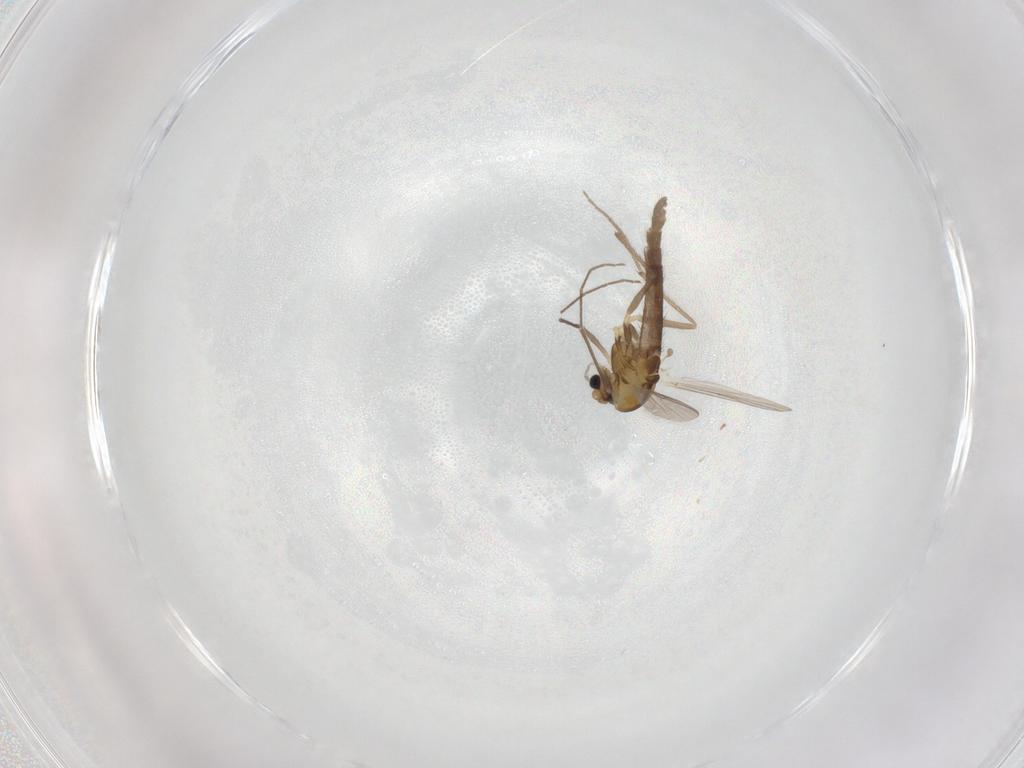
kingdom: Animalia
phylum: Arthropoda
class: Insecta
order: Diptera
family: Chironomidae
